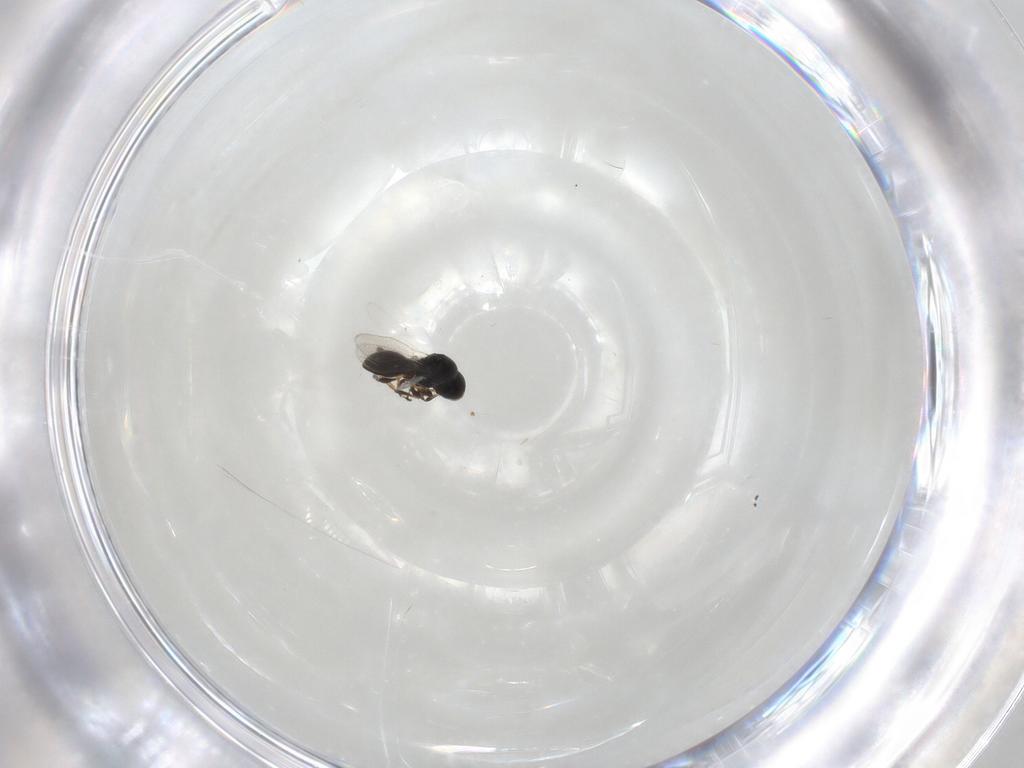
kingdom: Animalia
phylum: Arthropoda
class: Insecta
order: Hymenoptera
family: Platygastridae
